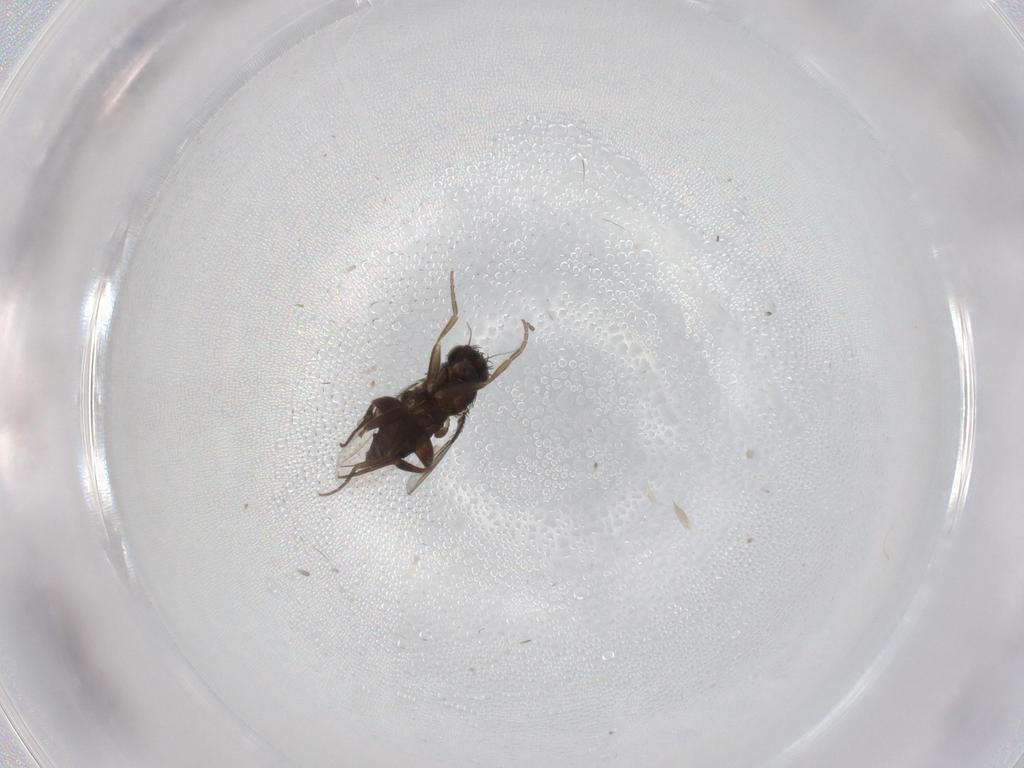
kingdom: Animalia
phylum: Arthropoda
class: Insecta
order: Diptera
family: Phoridae
